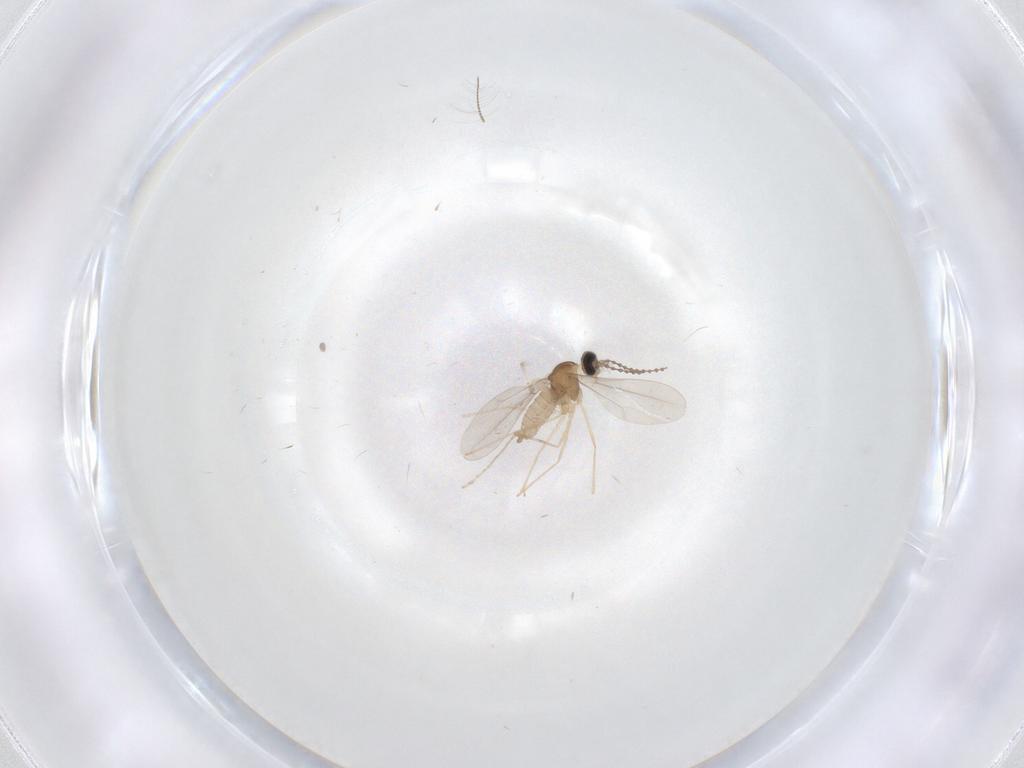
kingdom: Animalia
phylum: Arthropoda
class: Insecta
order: Diptera
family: Cecidomyiidae
